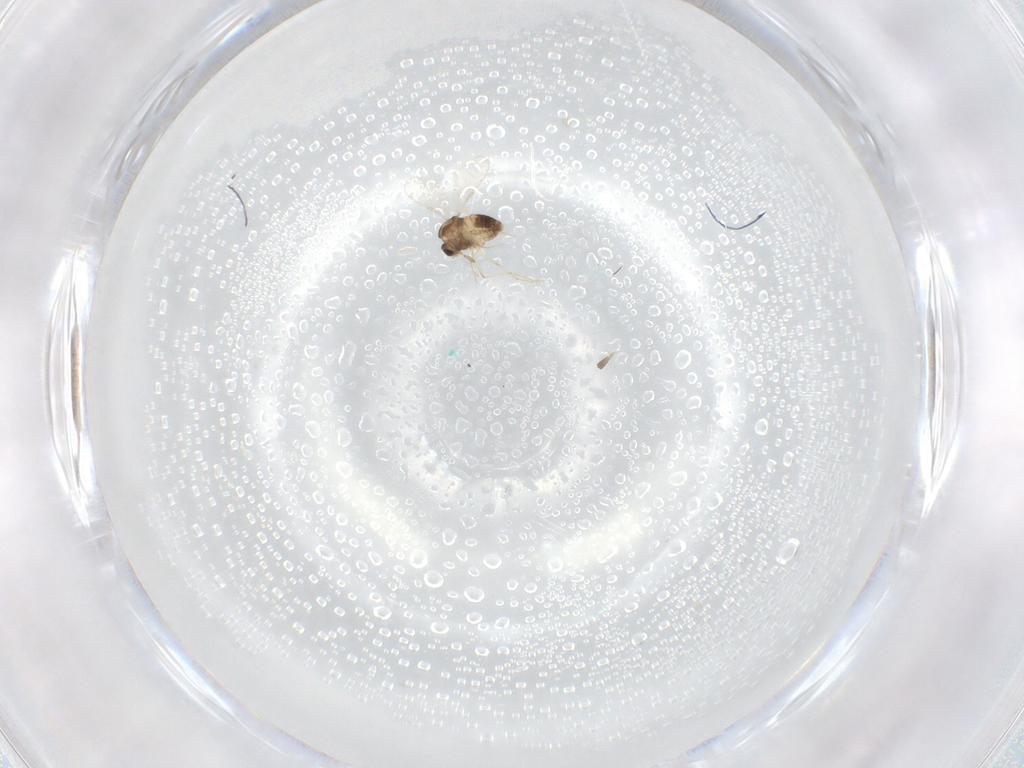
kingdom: Animalia
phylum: Arthropoda
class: Insecta
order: Diptera
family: Chironomidae
